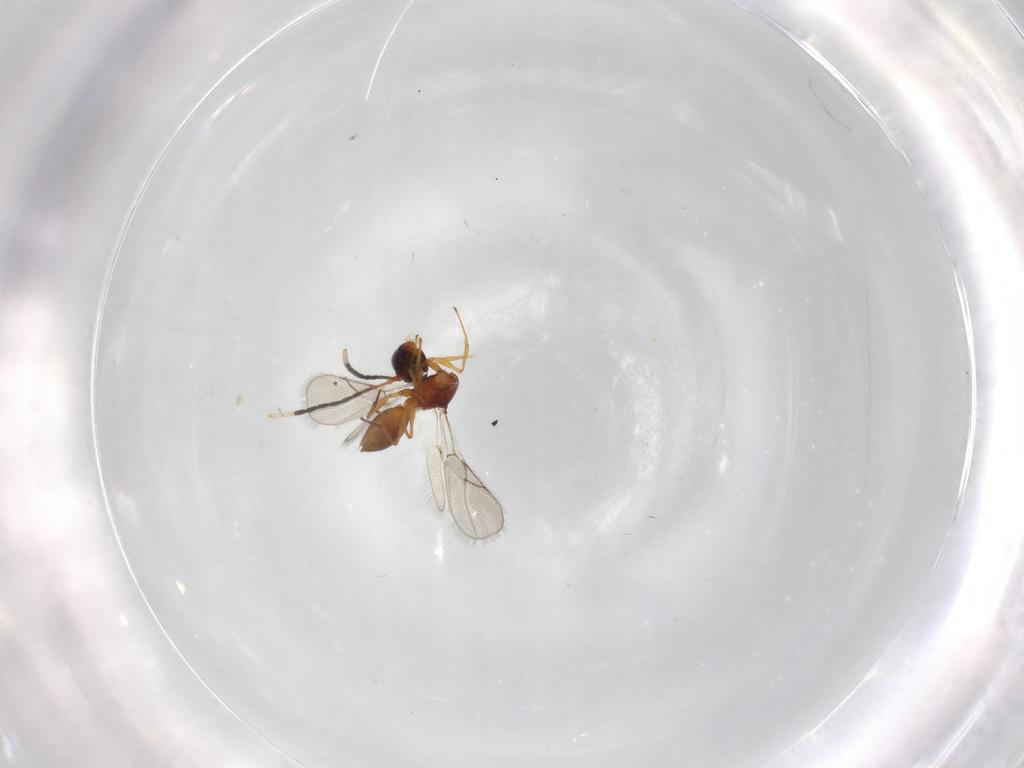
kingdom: Animalia
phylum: Arthropoda
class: Insecta
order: Hymenoptera
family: Figitidae
